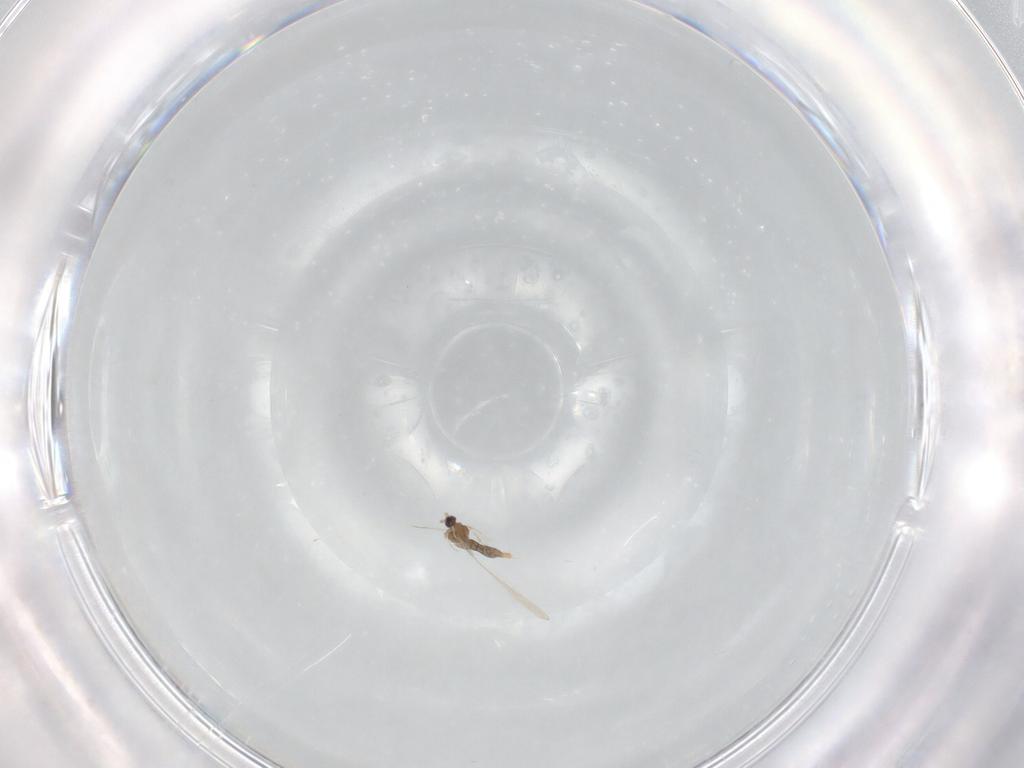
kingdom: Animalia
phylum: Arthropoda
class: Insecta
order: Diptera
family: Cecidomyiidae
